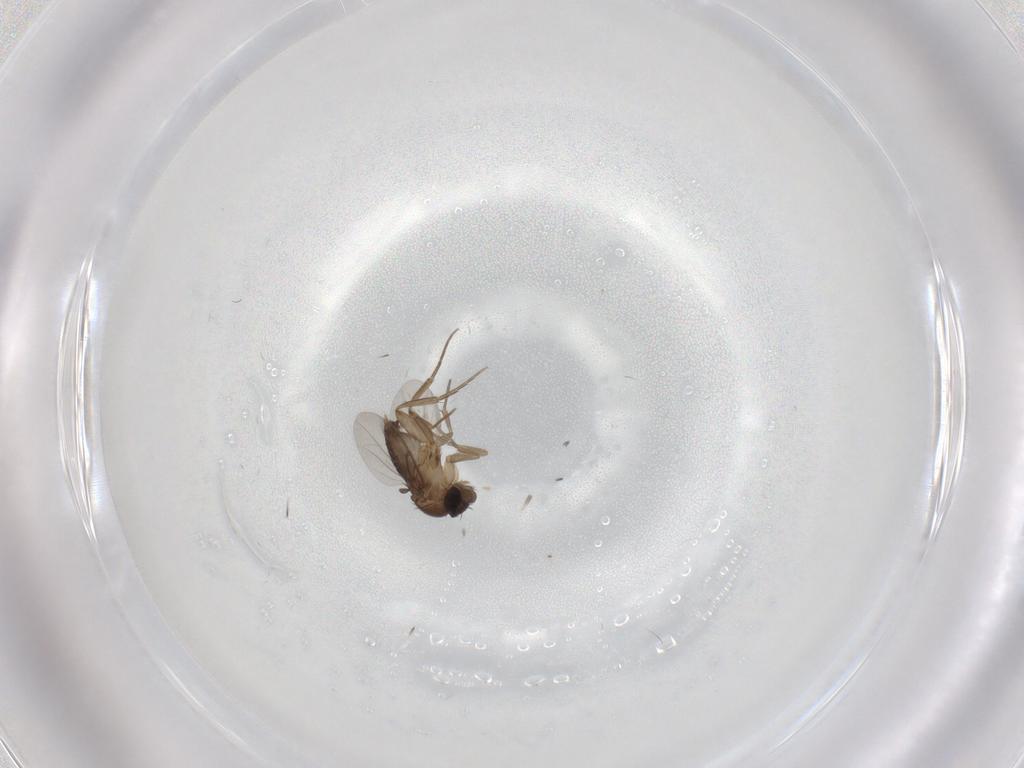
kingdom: Animalia
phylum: Arthropoda
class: Insecta
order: Diptera
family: Phoridae
